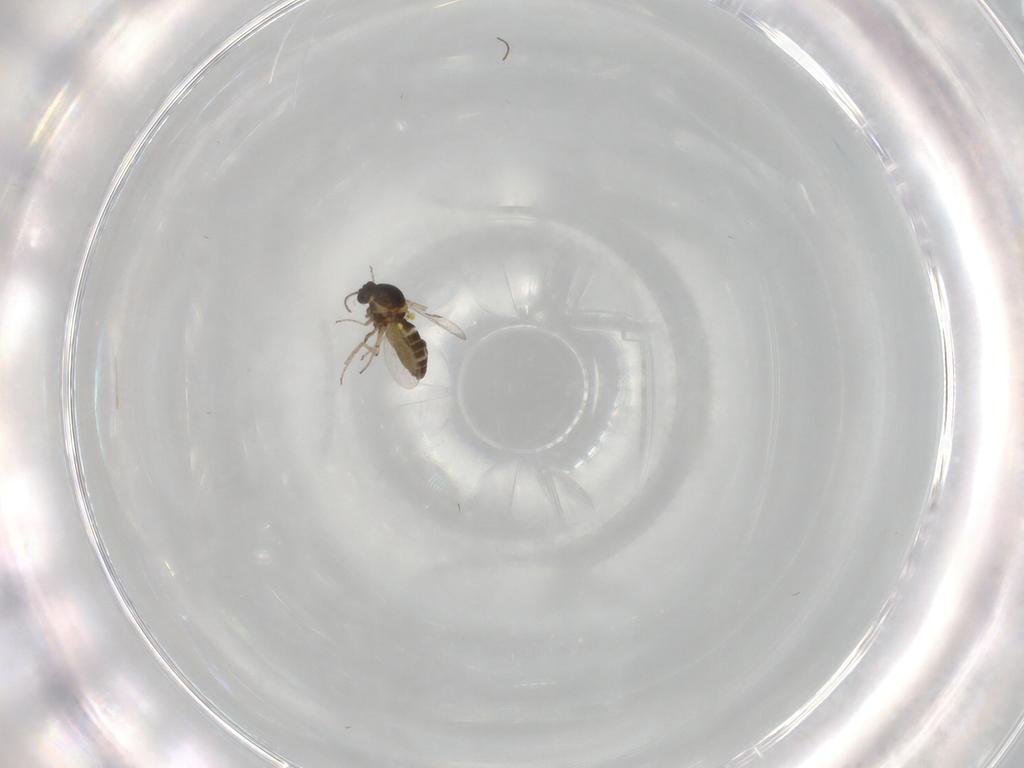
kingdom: Animalia
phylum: Arthropoda
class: Insecta
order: Diptera
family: Ceratopogonidae
